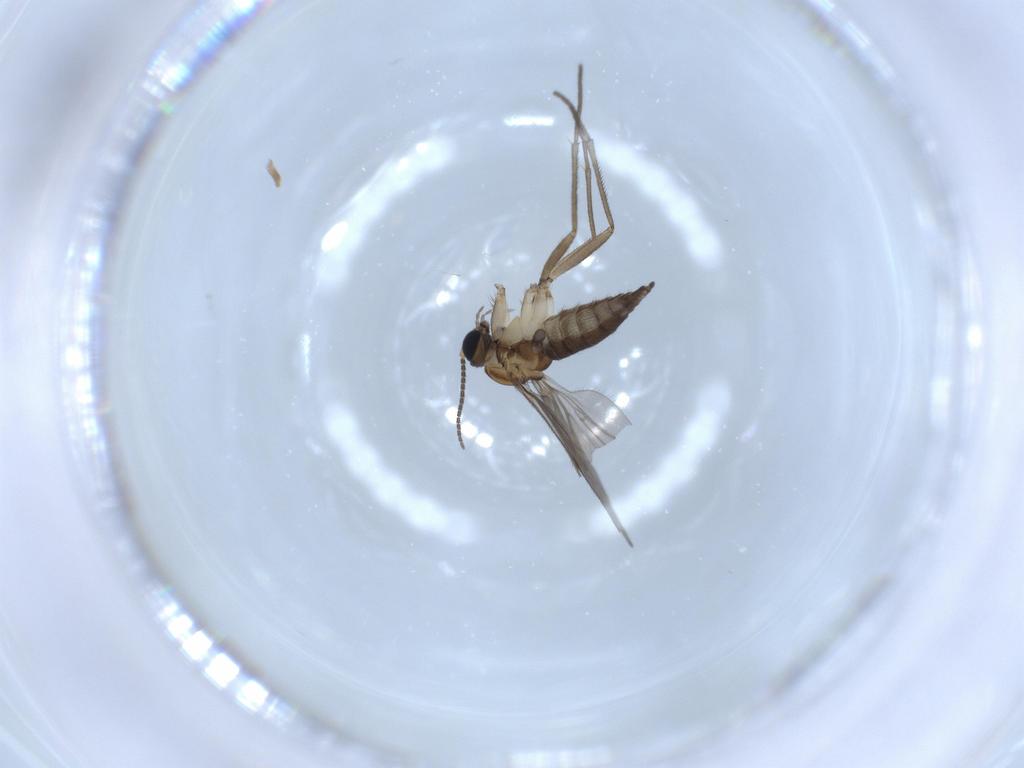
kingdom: Animalia
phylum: Arthropoda
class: Insecta
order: Diptera
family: Sciaridae
